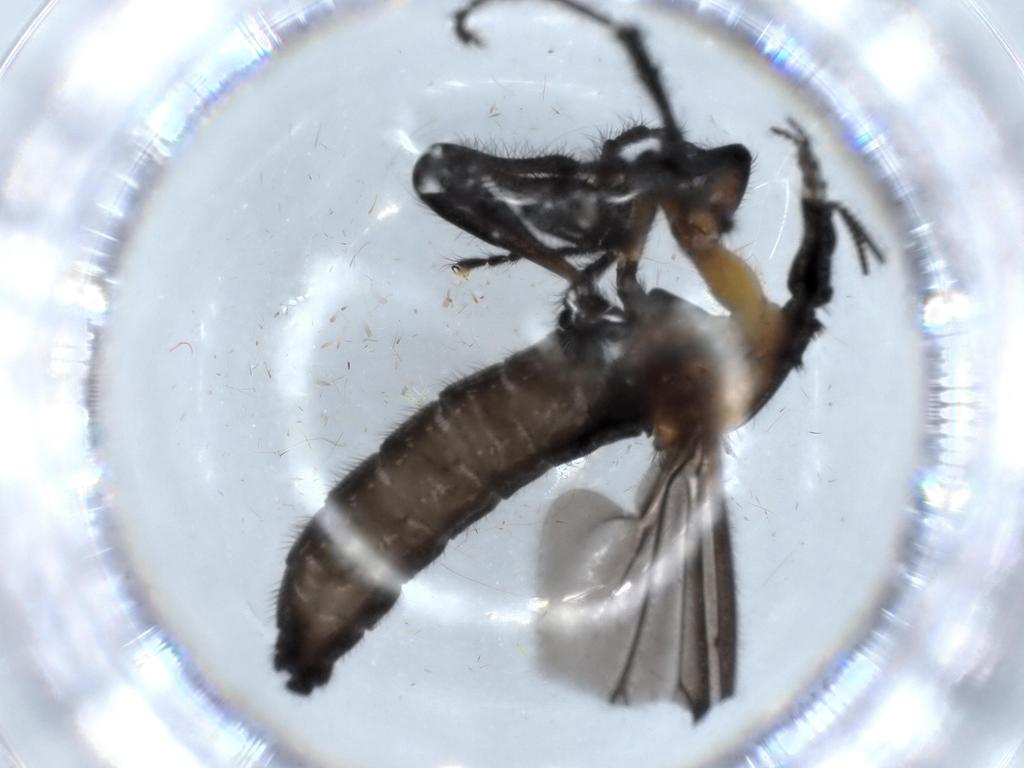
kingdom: Animalia
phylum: Arthropoda
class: Insecta
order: Diptera
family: Bibionidae
